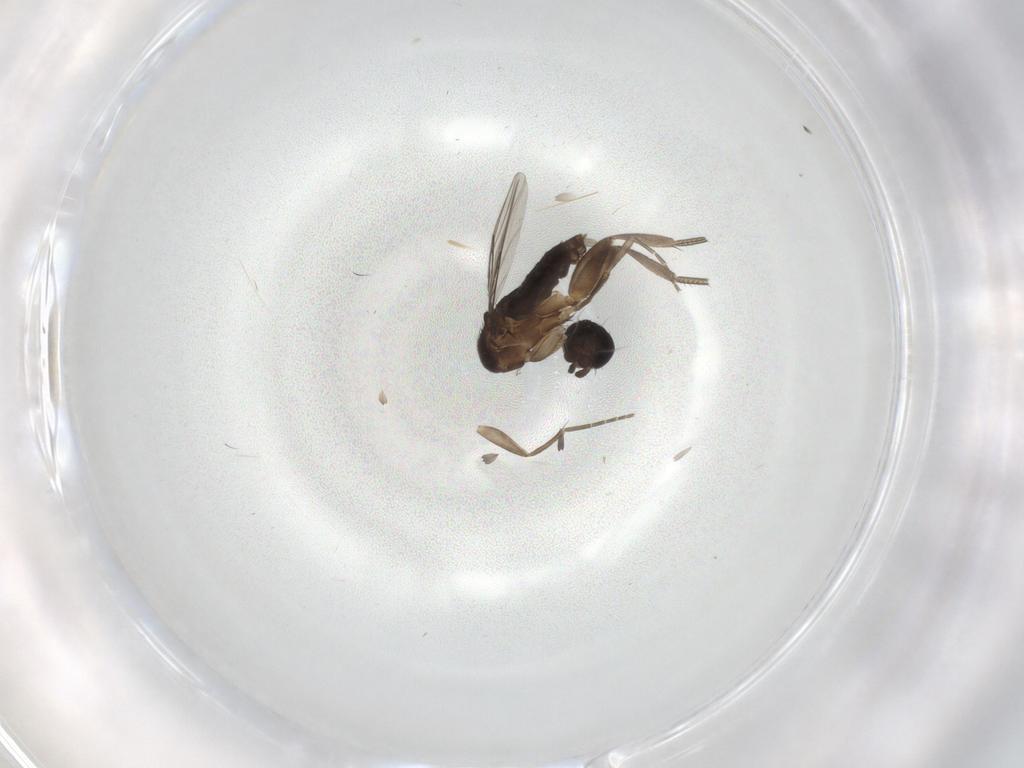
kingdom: Animalia
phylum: Arthropoda
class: Insecta
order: Diptera
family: Phoridae
